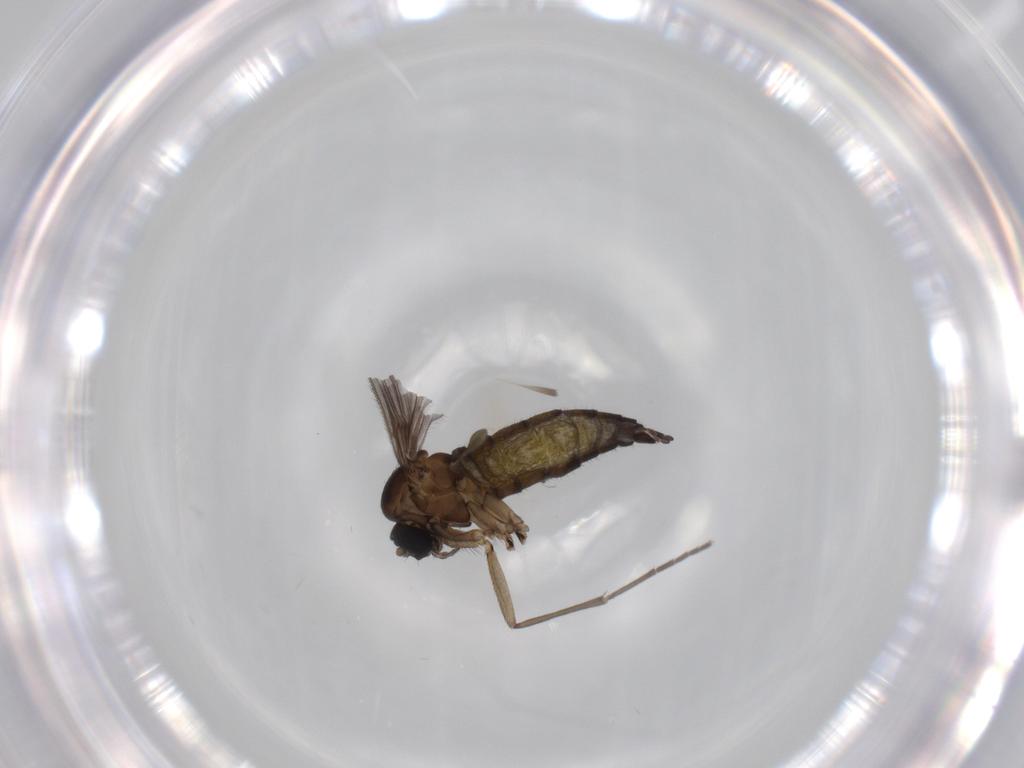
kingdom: Animalia
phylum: Arthropoda
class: Insecta
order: Diptera
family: Sciaridae
